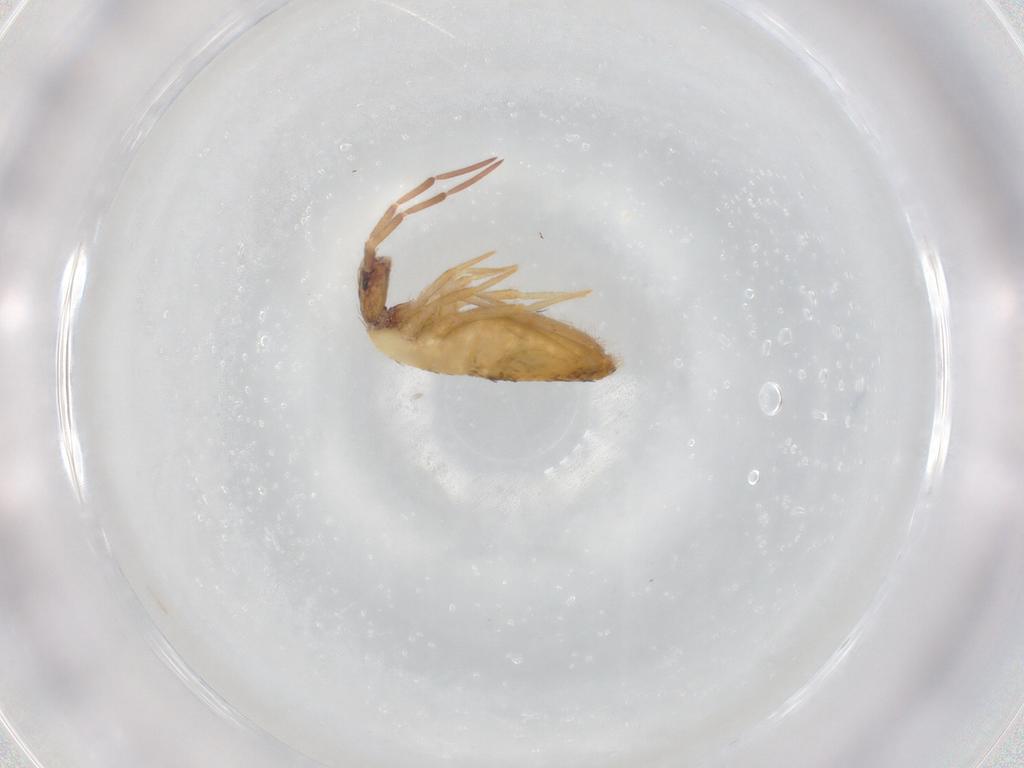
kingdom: Animalia
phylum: Arthropoda
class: Collembola
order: Entomobryomorpha
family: Entomobryidae
